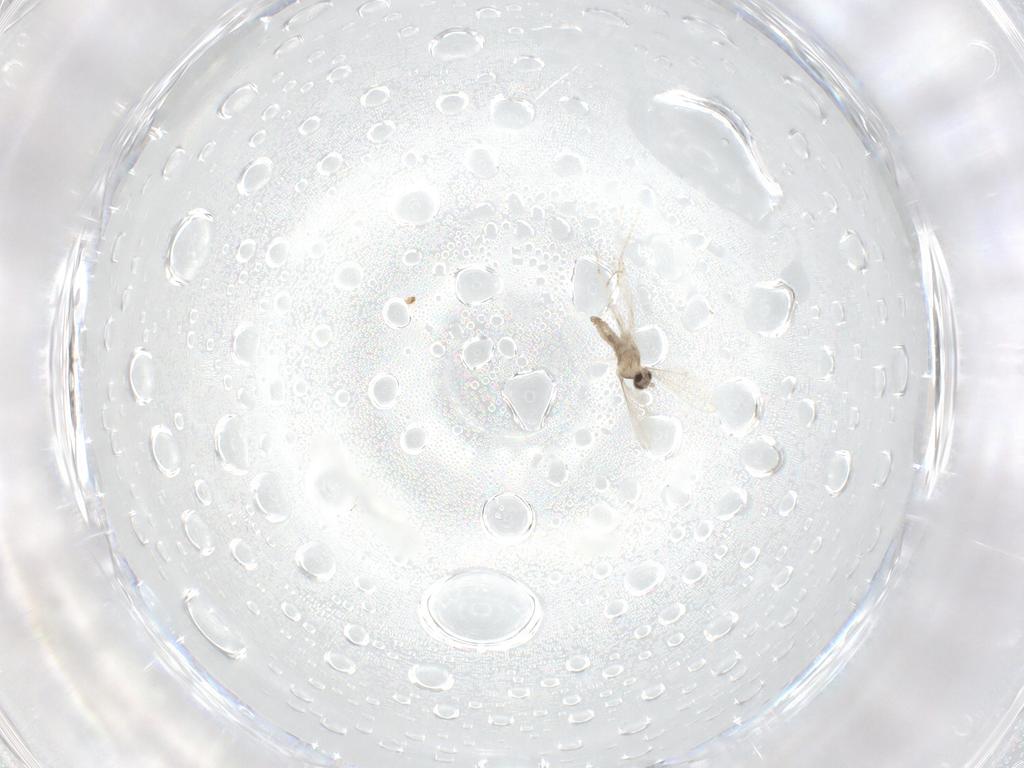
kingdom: Animalia
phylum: Arthropoda
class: Insecta
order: Diptera
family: Cecidomyiidae
